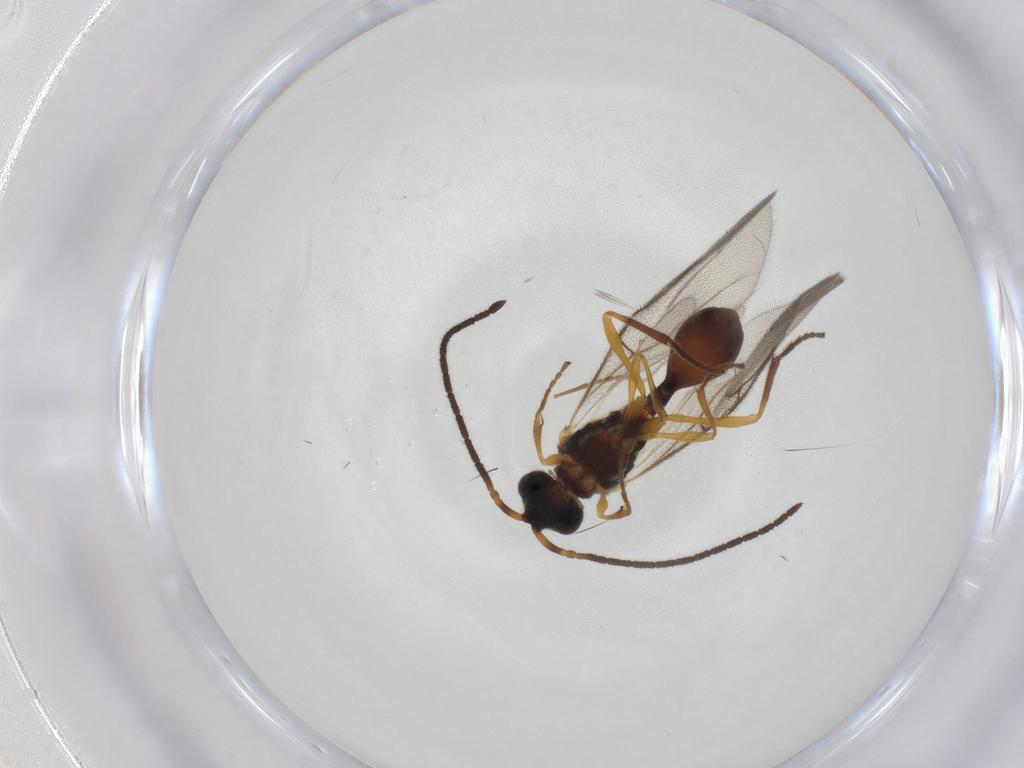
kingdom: Animalia
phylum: Arthropoda
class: Insecta
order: Hymenoptera
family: Diapriidae
